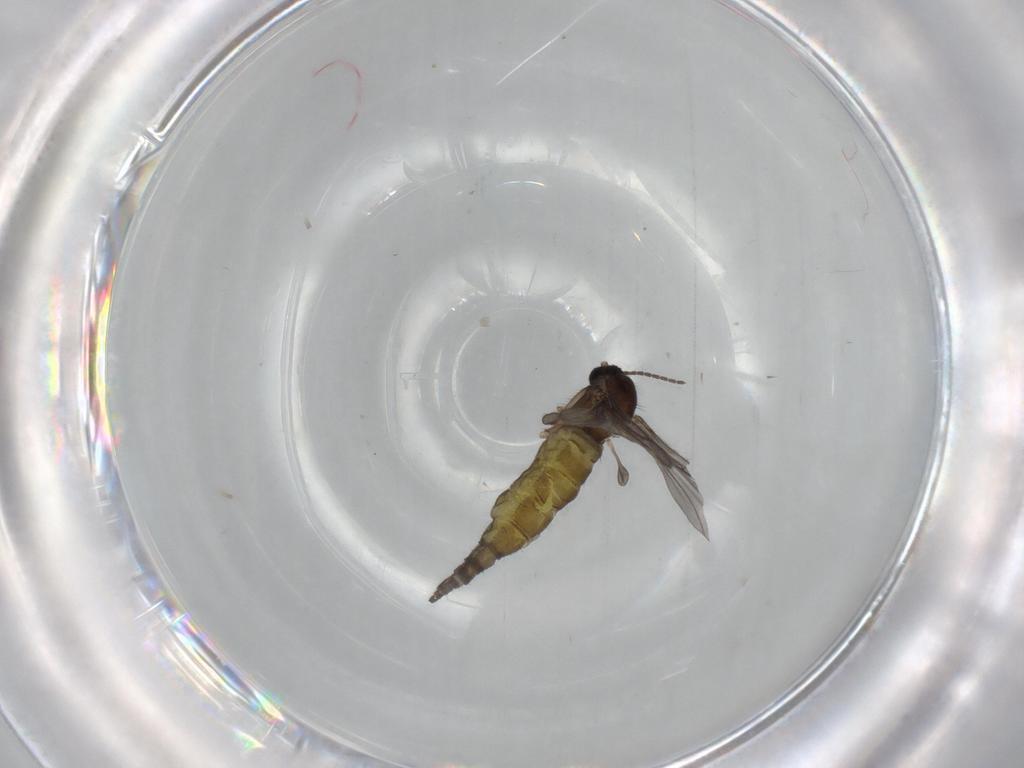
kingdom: Animalia
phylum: Arthropoda
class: Insecta
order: Diptera
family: Sciaridae
